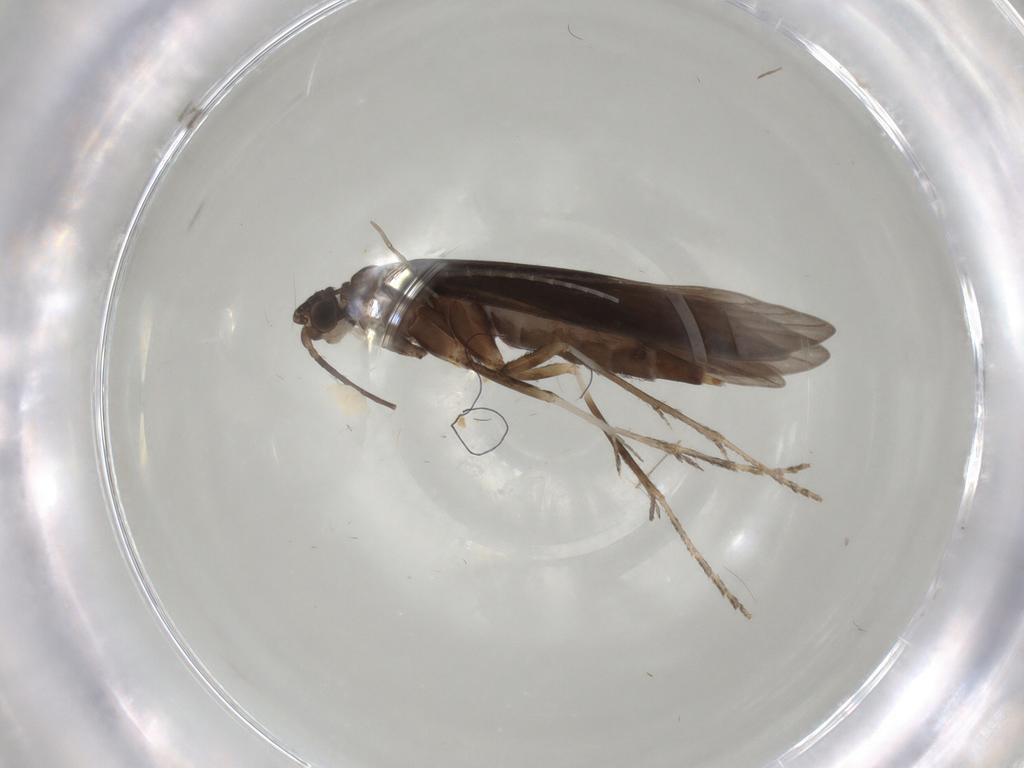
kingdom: Animalia
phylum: Arthropoda
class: Insecta
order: Trichoptera
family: Xiphocentronidae
